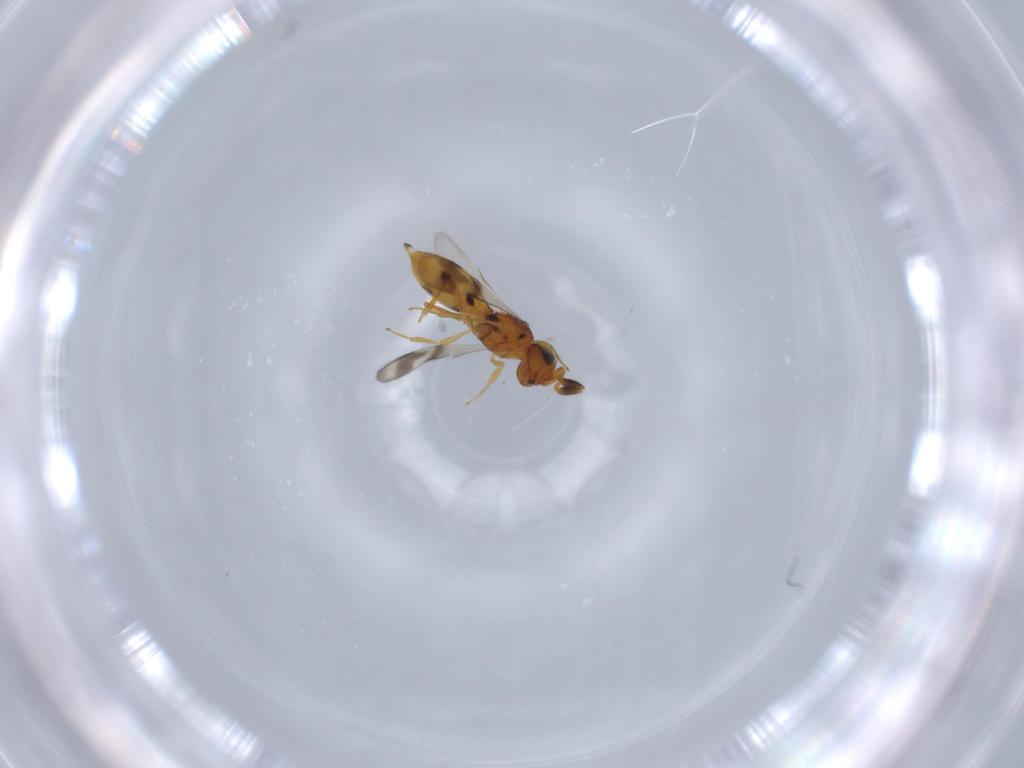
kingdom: Animalia
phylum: Arthropoda
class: Insecta
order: Hymenoptera
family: Scelionidae
